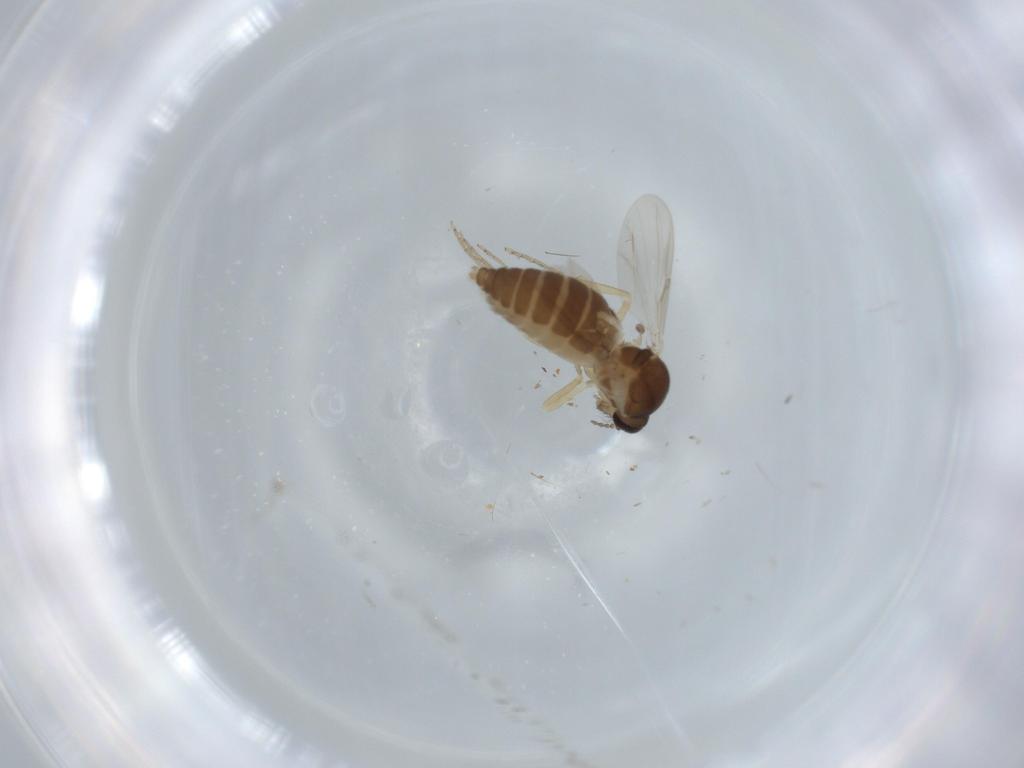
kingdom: Animalia
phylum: Arthropoda
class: Insecta
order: Diptera
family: Ceratopogonidae
